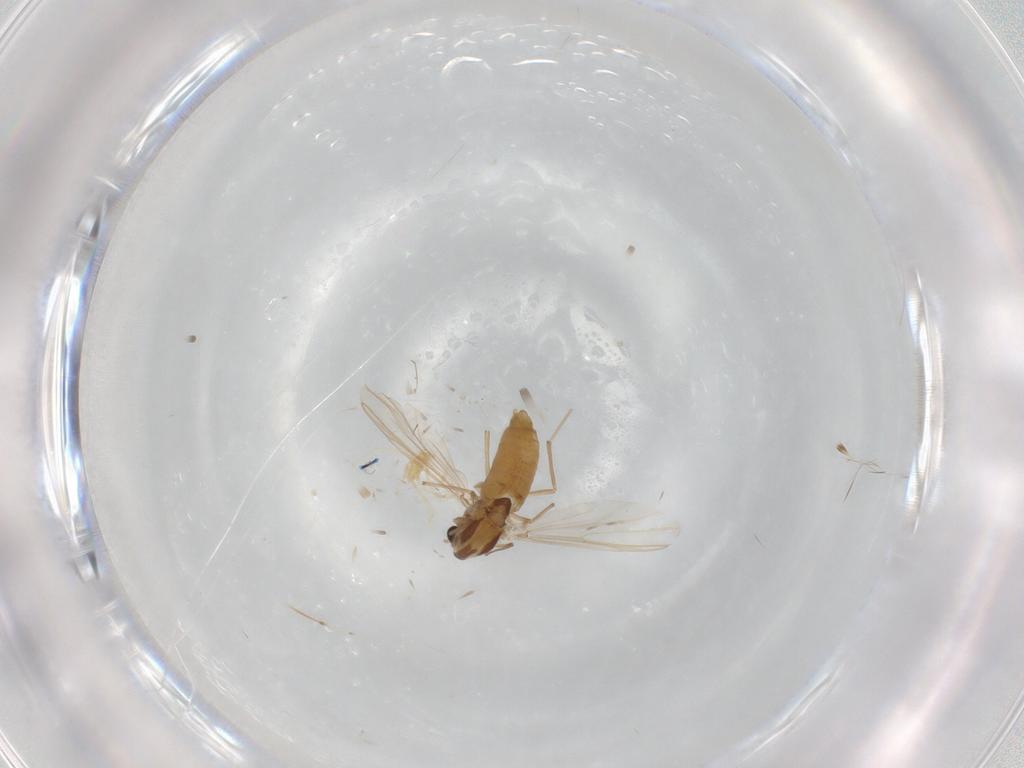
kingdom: Animalia
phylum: Arthropoda
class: Insecta
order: Diptera
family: Chironomidae
